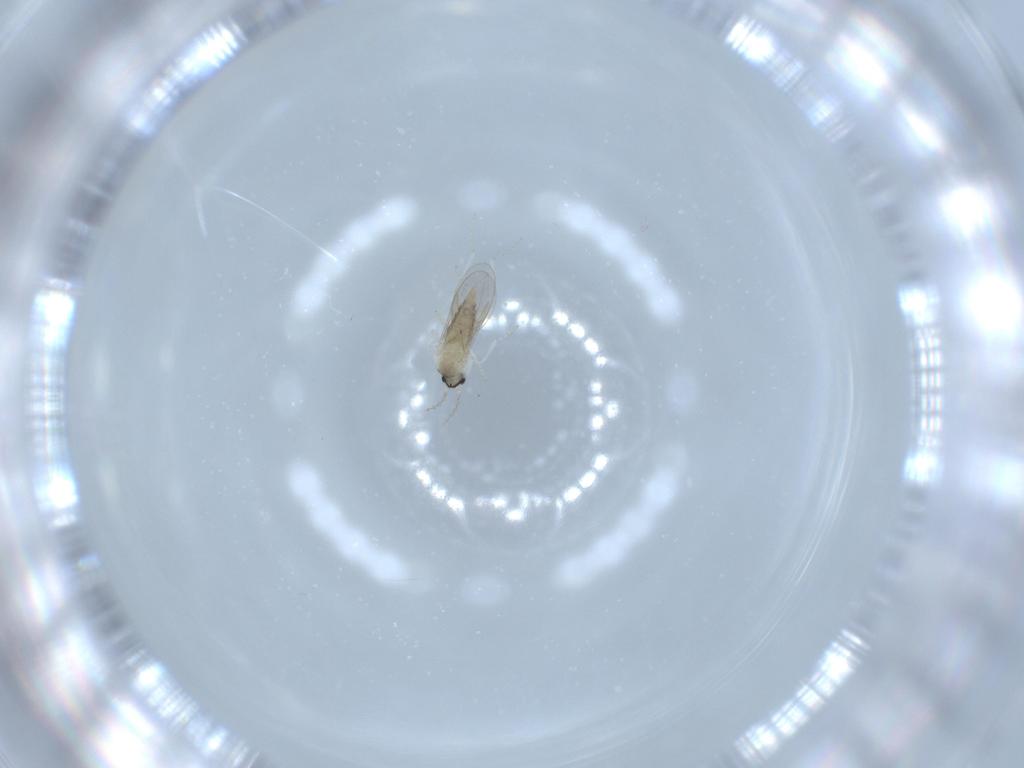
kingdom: Animalia
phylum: Arthropoda
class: Insecta
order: Diptera
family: Cecidomyiidae
